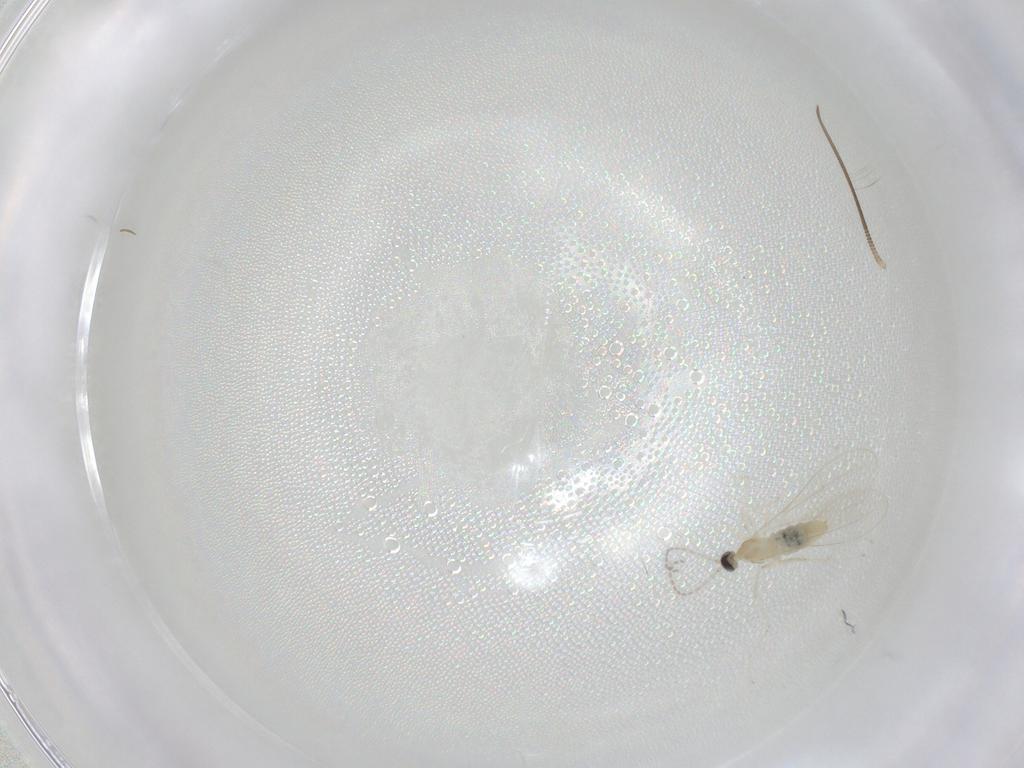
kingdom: Animalia
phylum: Arthropoda
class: Insecta
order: Diptera
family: Cecidomyiidae
